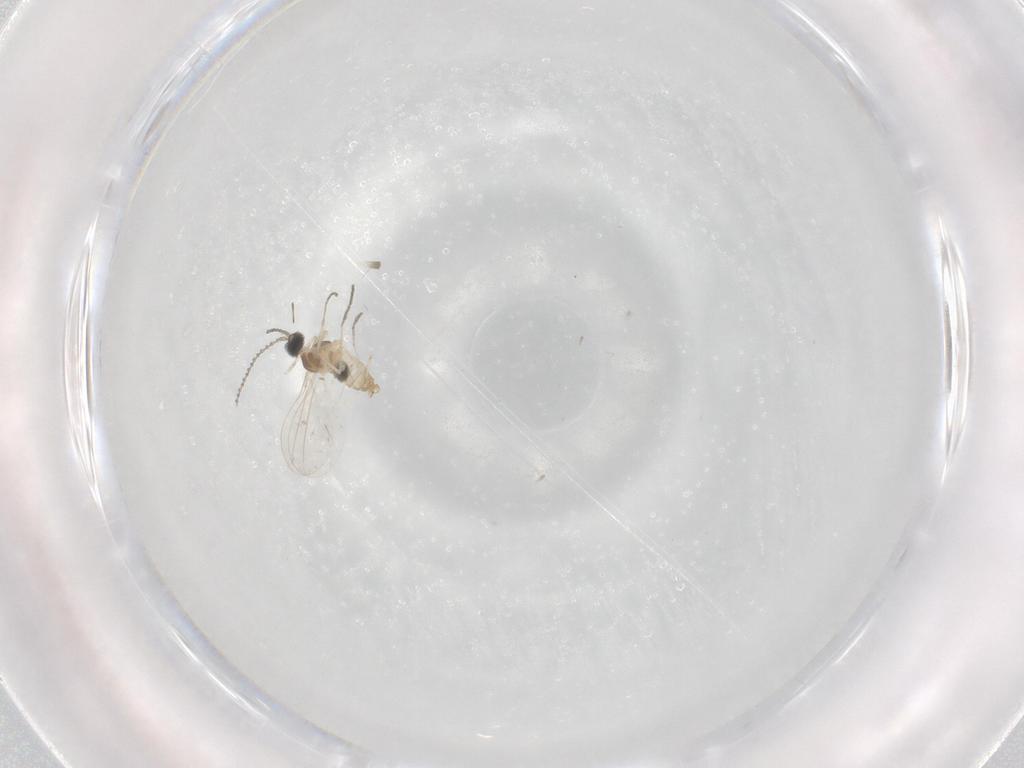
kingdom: Animalia
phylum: Arthropoda
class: Insecta
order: Diptera
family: Cecidomyiidae
